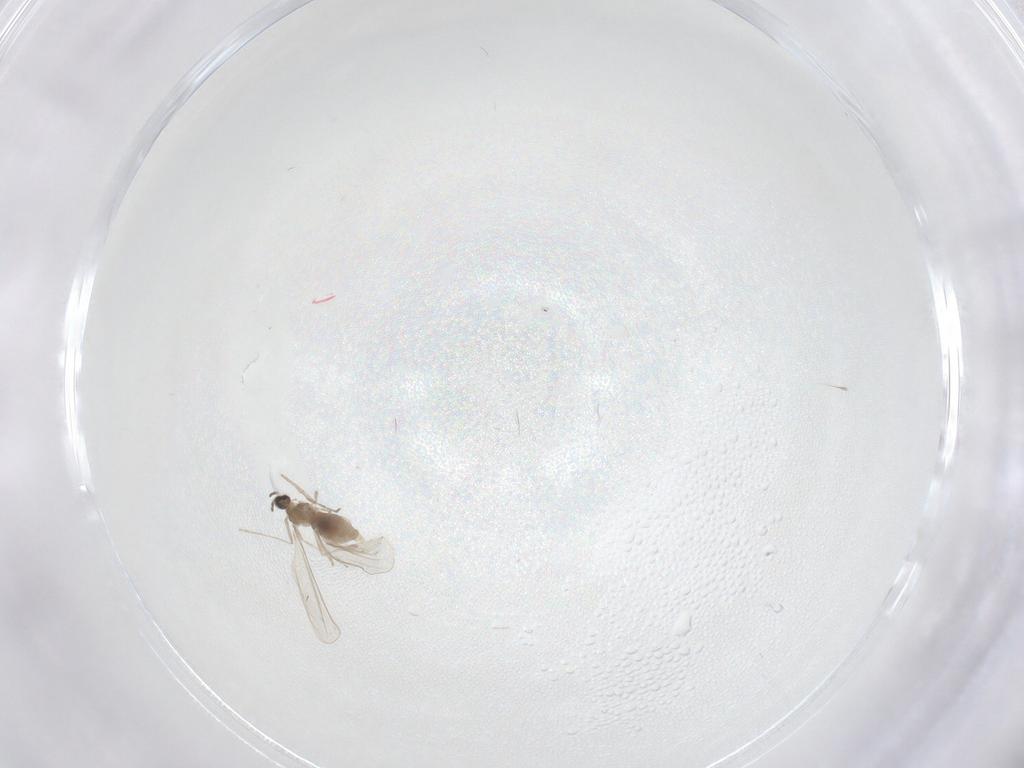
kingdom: Animalia
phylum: Arthropoda
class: Insecta
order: Diptera
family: Cecidomyiidae
